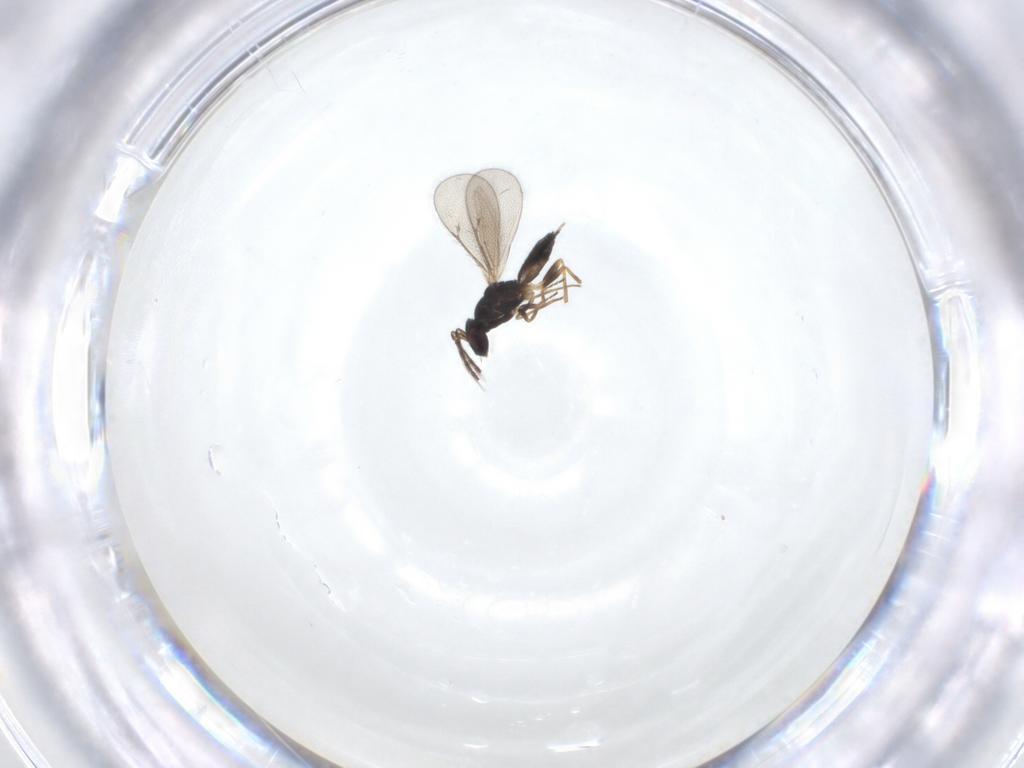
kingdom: Animalia
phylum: Arthropoda
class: Insecta
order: Hymenoptera
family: Eulophidae
